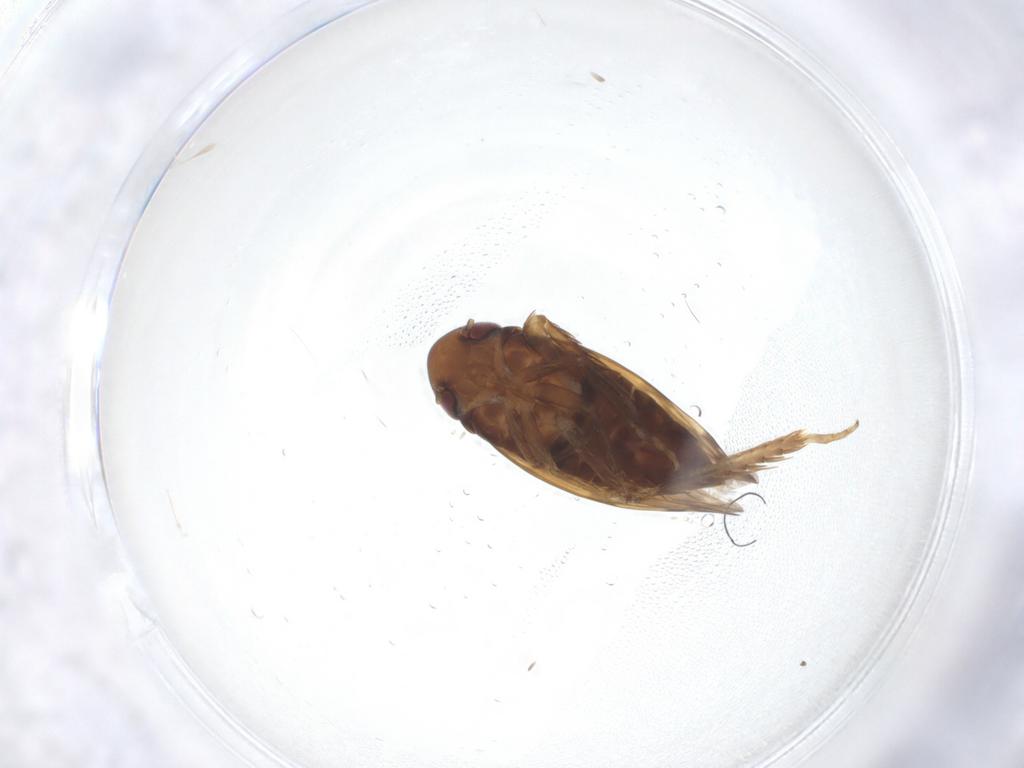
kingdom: Animalia
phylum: Arthropoda
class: Insecta
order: Hemiptera
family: Cicadellidae
